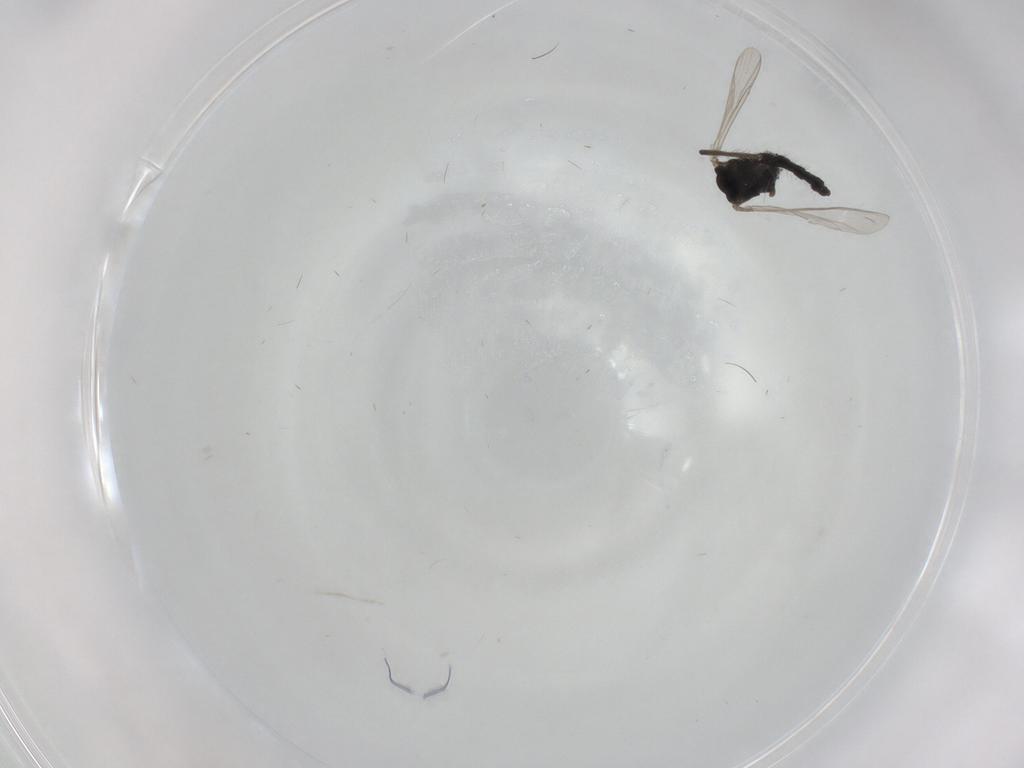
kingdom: Animalia
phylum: Arthropoda
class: Insecta
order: Diptera
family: Chironomidae
